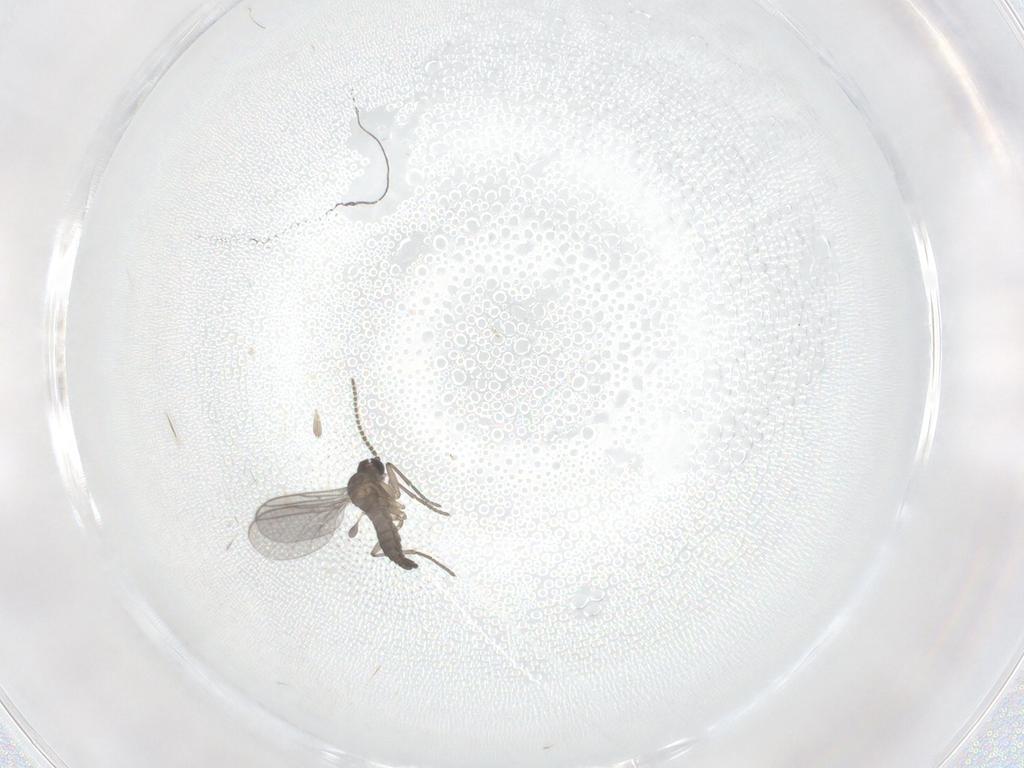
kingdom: Animalia
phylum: Arthropoda
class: Insecta
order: Diptera
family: Sciaridae
